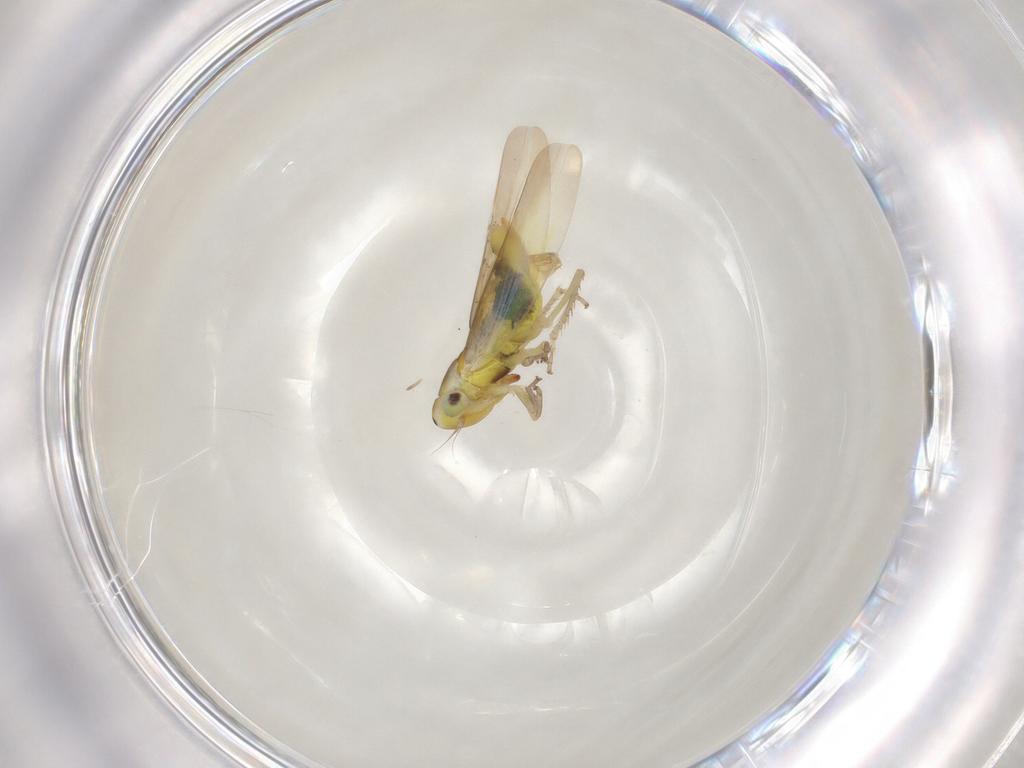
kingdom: Animalia
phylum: Arthropoda
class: Insecta
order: Hemiptera
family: Cicadellidae
